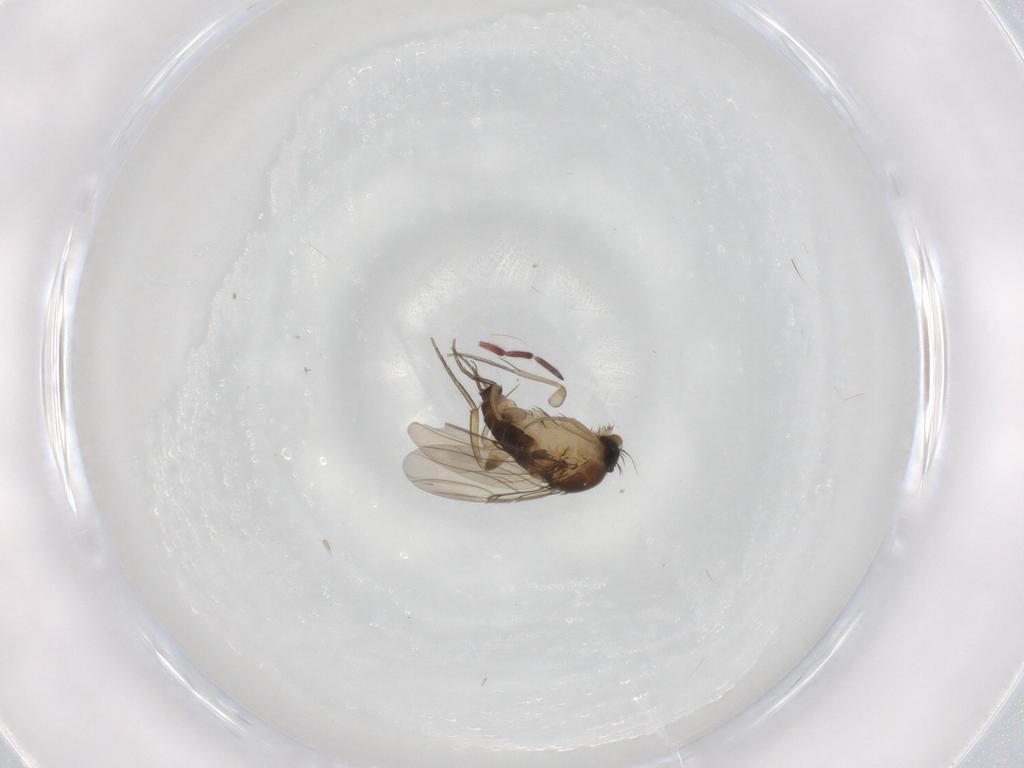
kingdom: Animalia
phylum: Arthropoda
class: Insecta
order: Diptera
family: Phoridae
